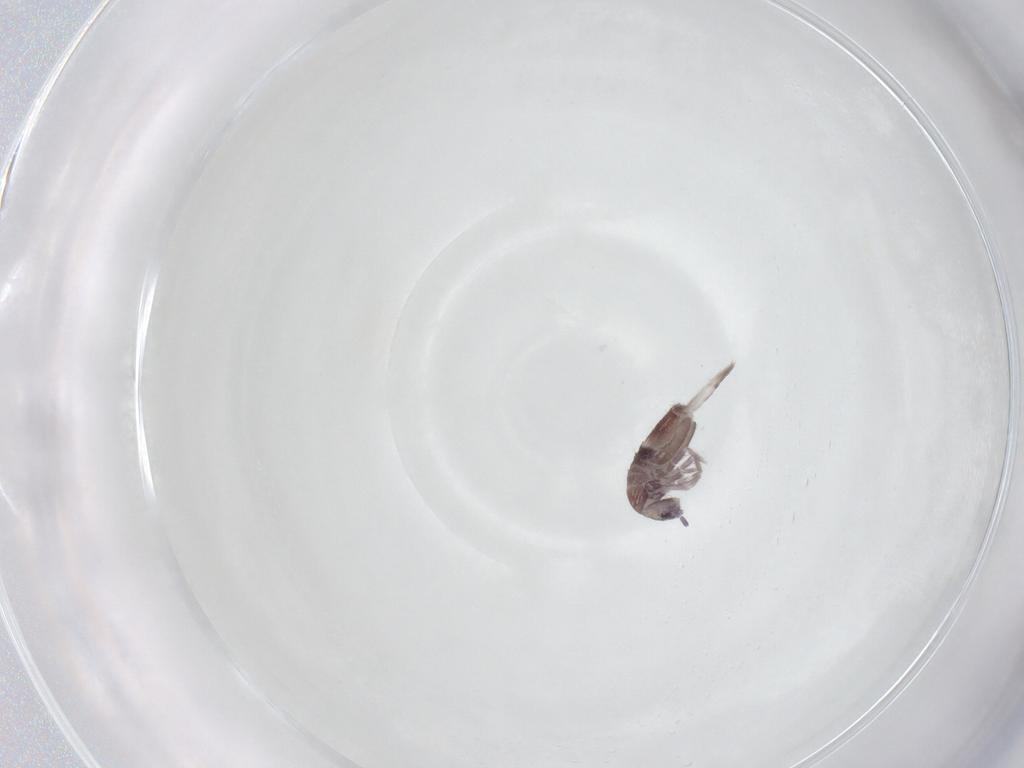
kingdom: Animalia
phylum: Arthropoda
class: Collembola
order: Entomobryomorpha
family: Entomobryidae
